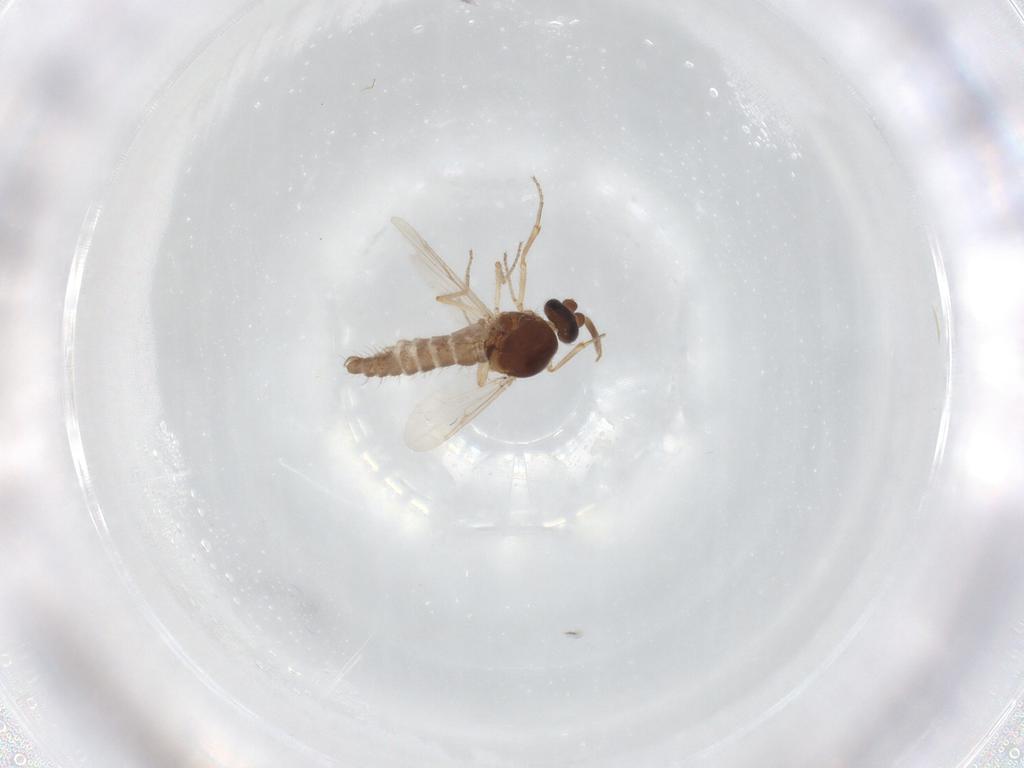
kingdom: Animalia
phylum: Arthropoda
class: Insecta
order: Diptera
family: Ceratopogonidae
